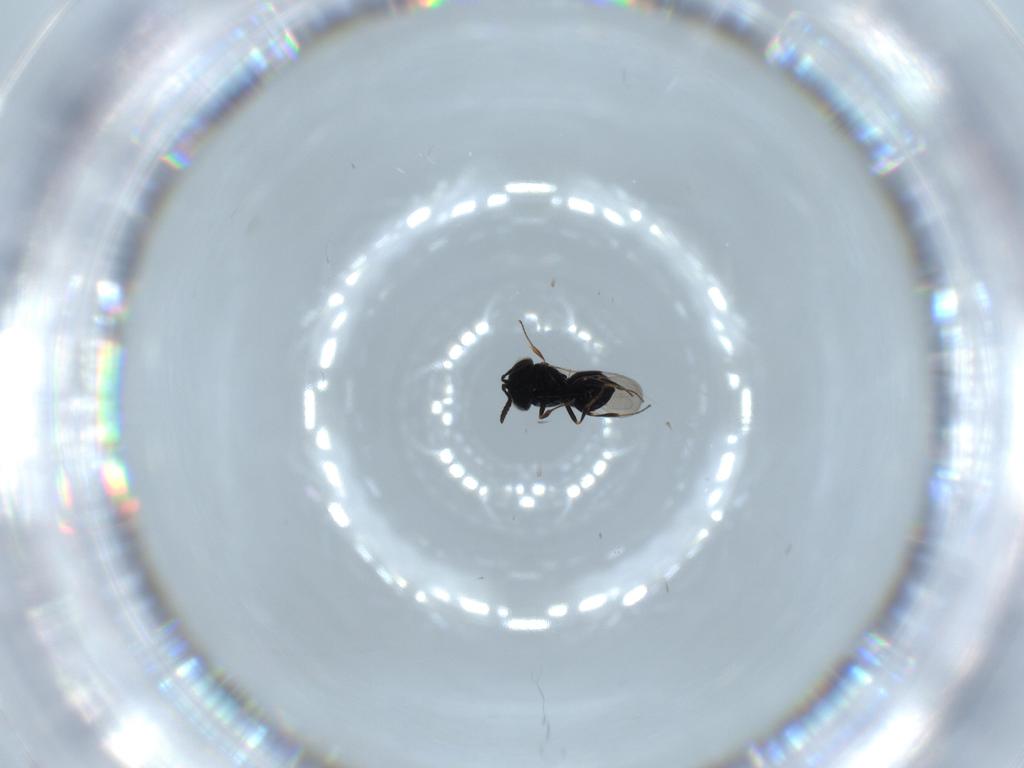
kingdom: Animalia
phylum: Arthropoda
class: Insecta
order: Hymenoptera
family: Scelionidae
